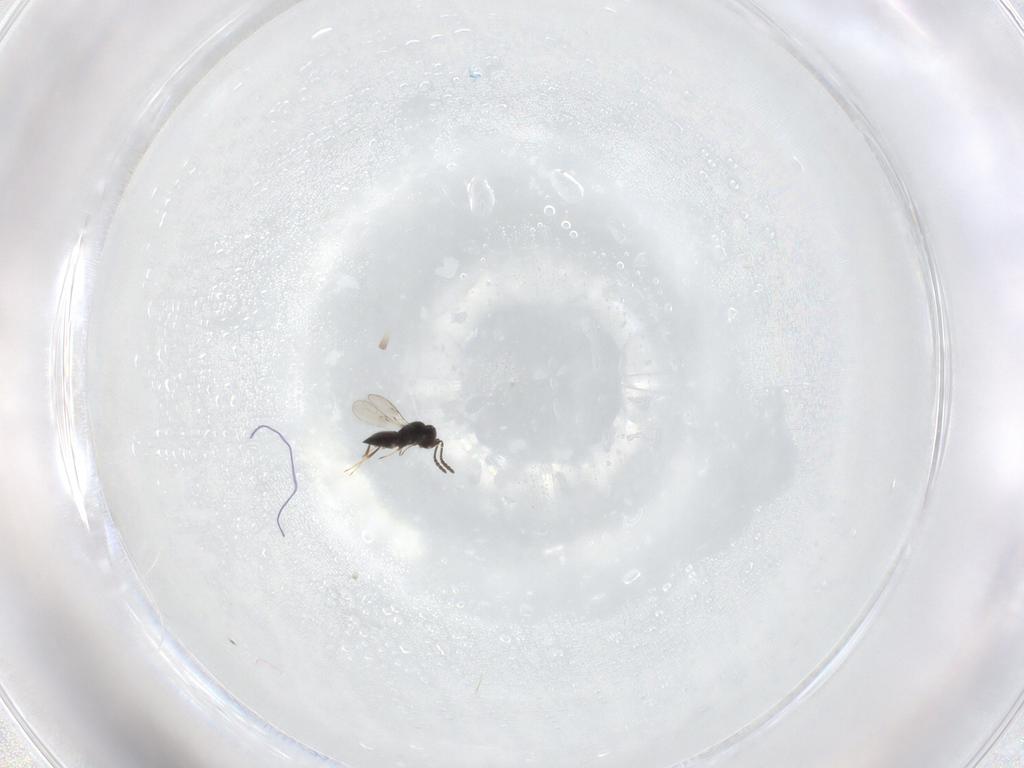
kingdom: Animalia
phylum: Arthropoda
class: Insecta
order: Hymenoptera
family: Scelionidae
